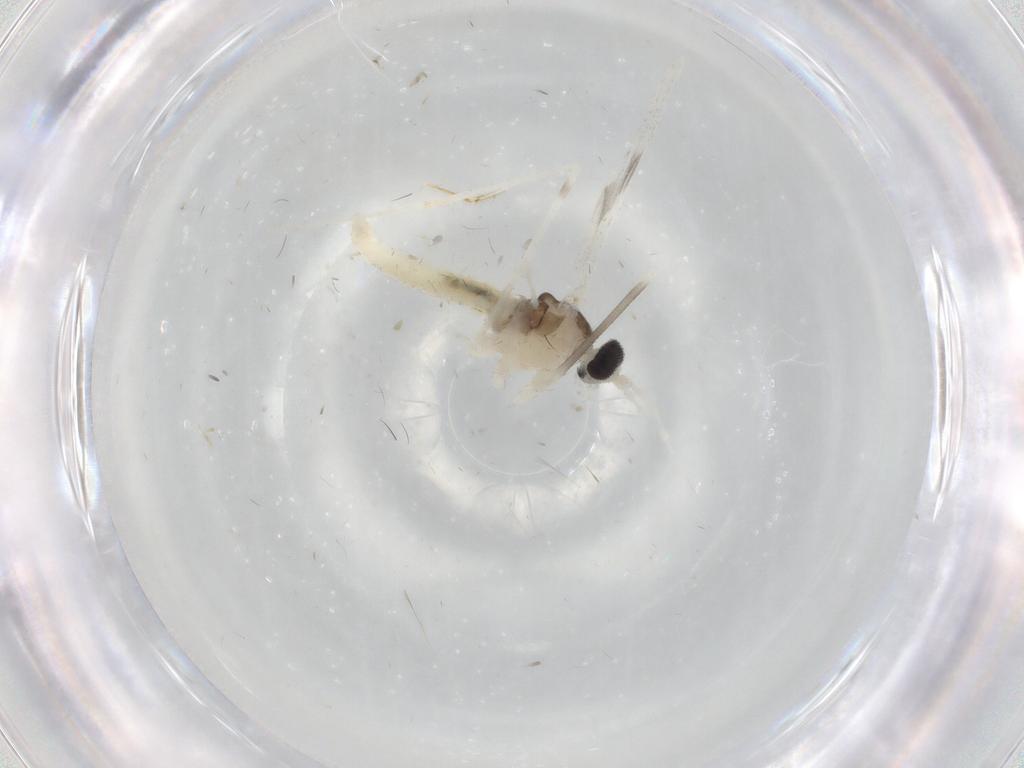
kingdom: Animalia
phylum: Arthropoda
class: Insecta
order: Diptera
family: Cecidomyiidae
